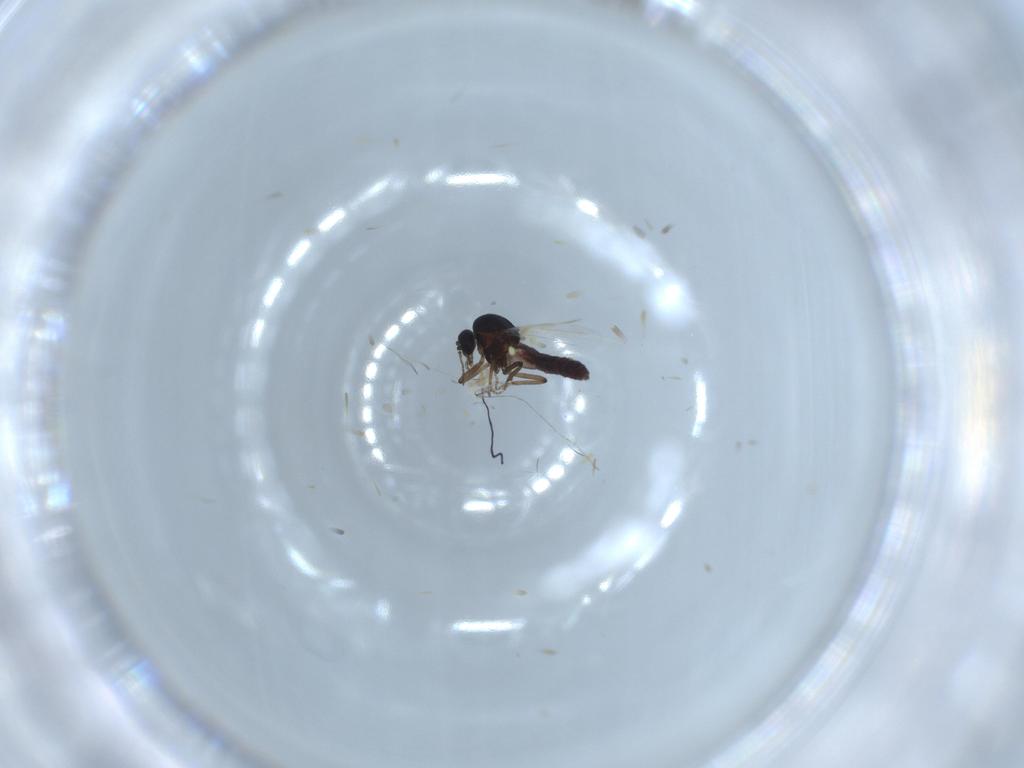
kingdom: Animalia
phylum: Arthropoda
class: Insecta
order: Diptera
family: Ceratopogonidae
